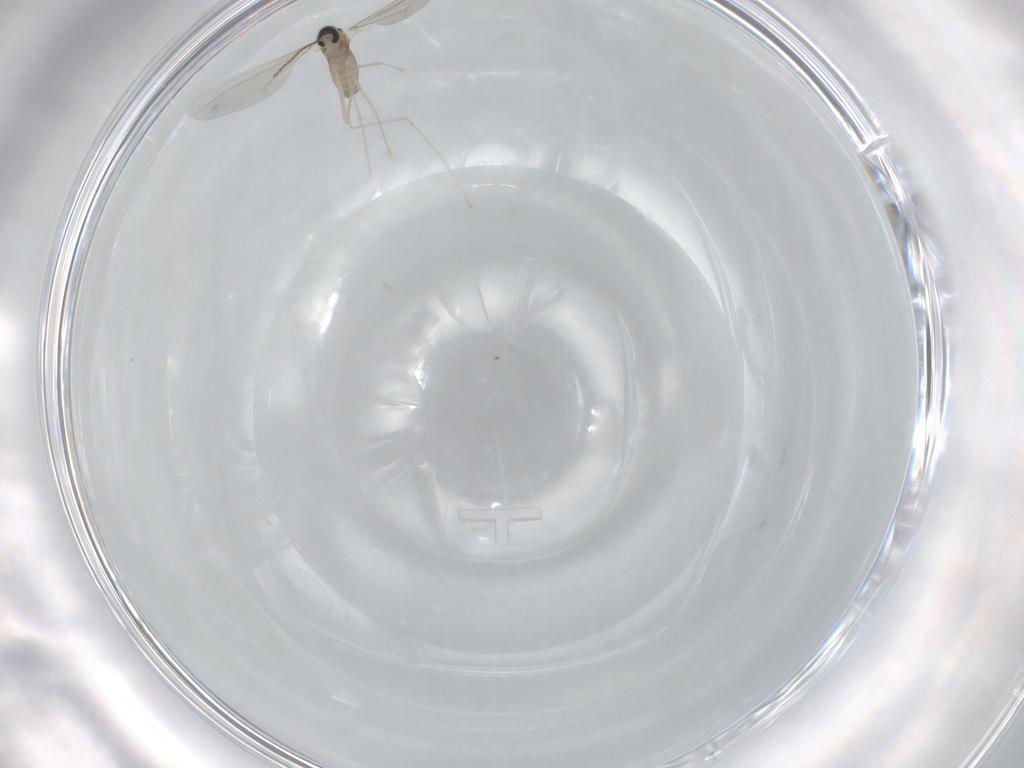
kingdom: Animalia
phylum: Arthropoda
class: Insecta
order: Diptera
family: Cecidomyiidae
